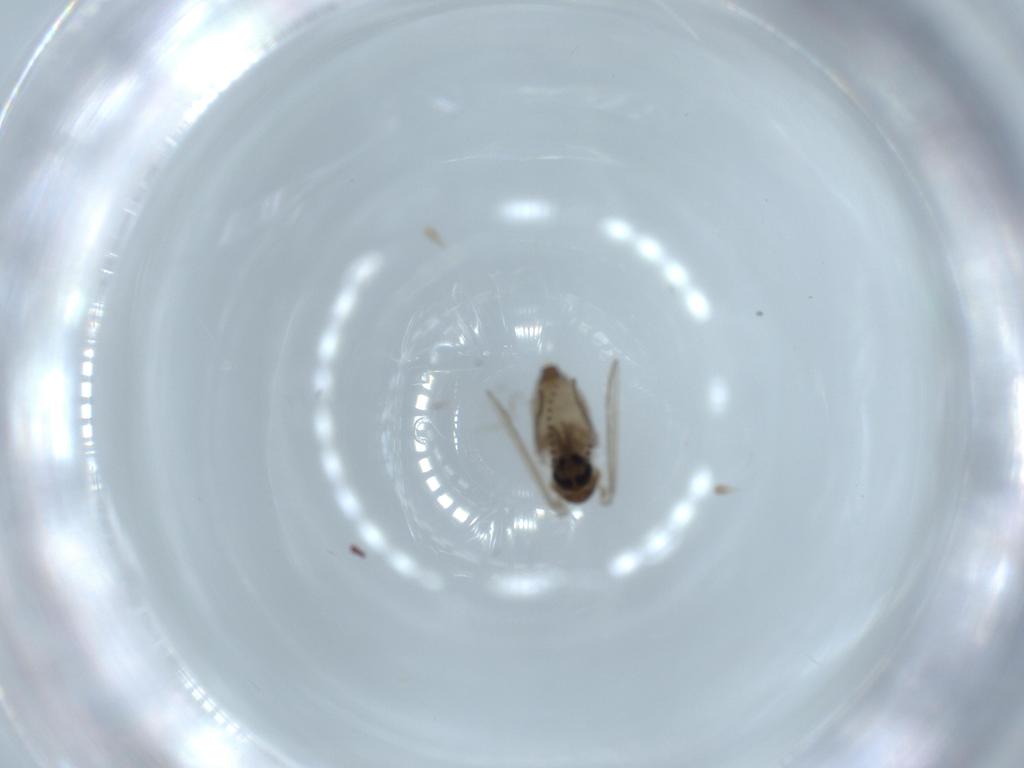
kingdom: Animalia
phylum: Arthropoda
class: Insecta
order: Diptera
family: Psychodidae
